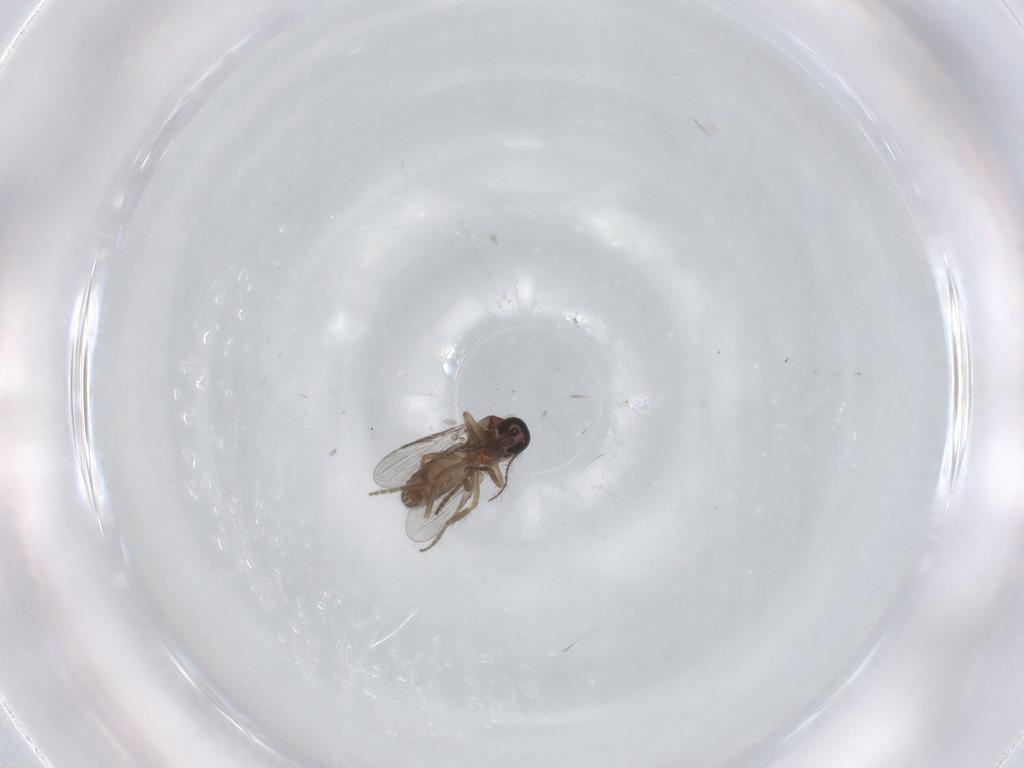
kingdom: Animalia
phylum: Arthropoda
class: Insecta
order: Diptera
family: Ceratopogonidae
